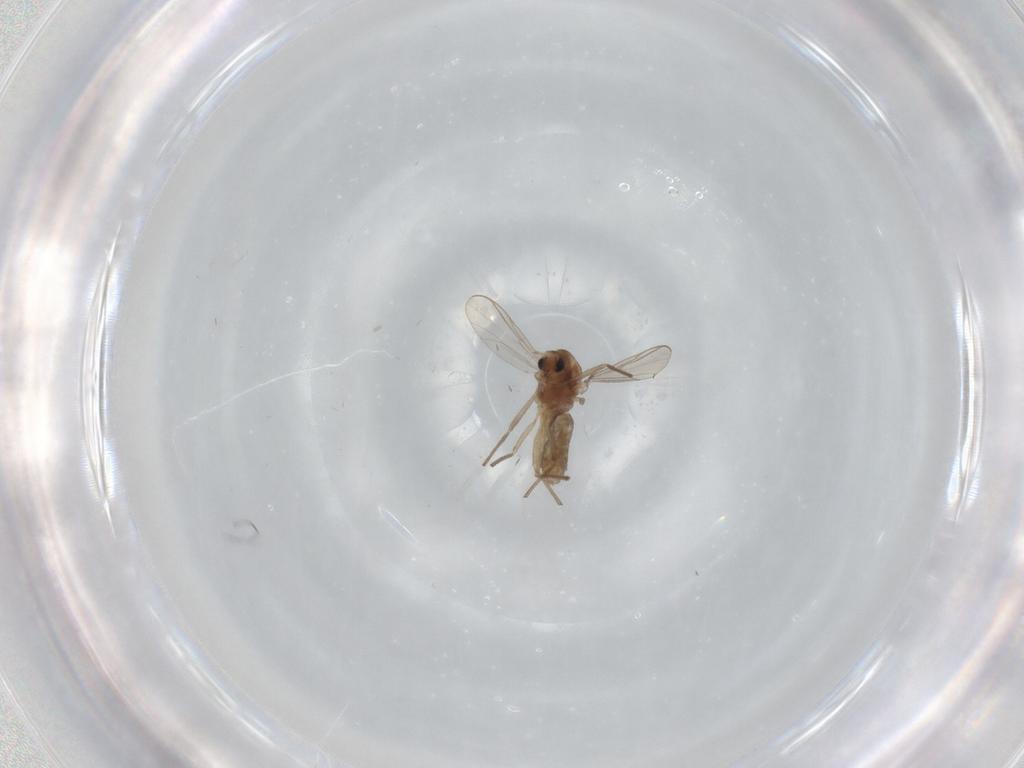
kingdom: Animalia
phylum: Arthropoda
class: Insecta
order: Diptera
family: Chironomidae
